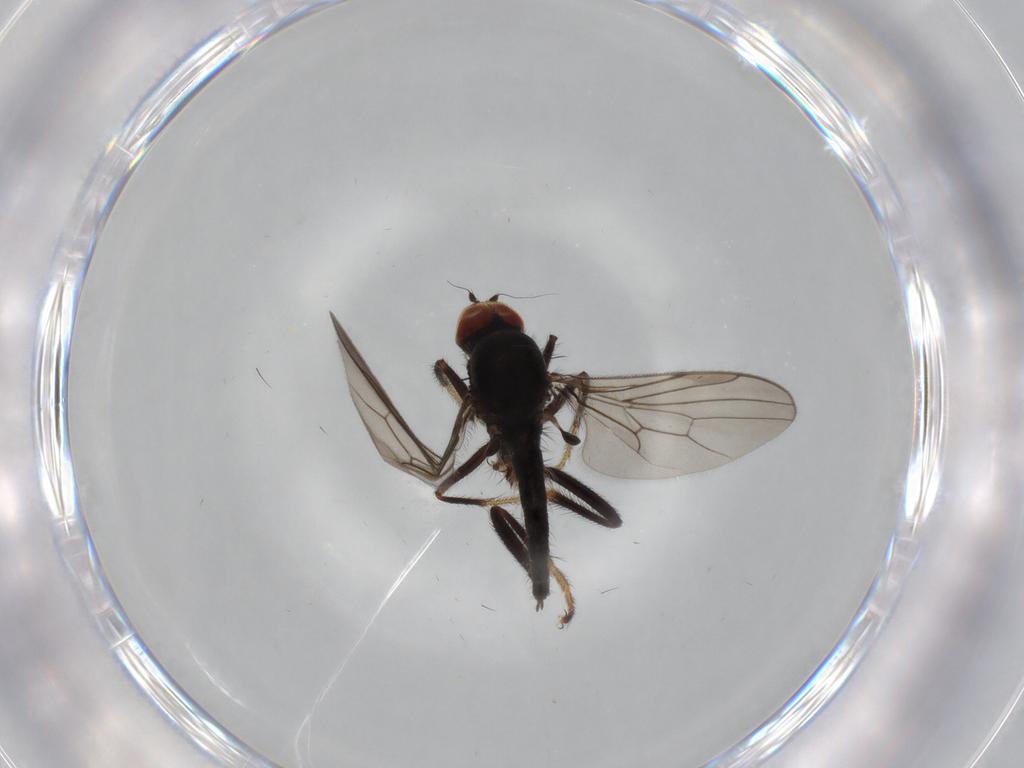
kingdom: Animalia
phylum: Arthropoda
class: Insecta
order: Diptera
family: Hybotidae
